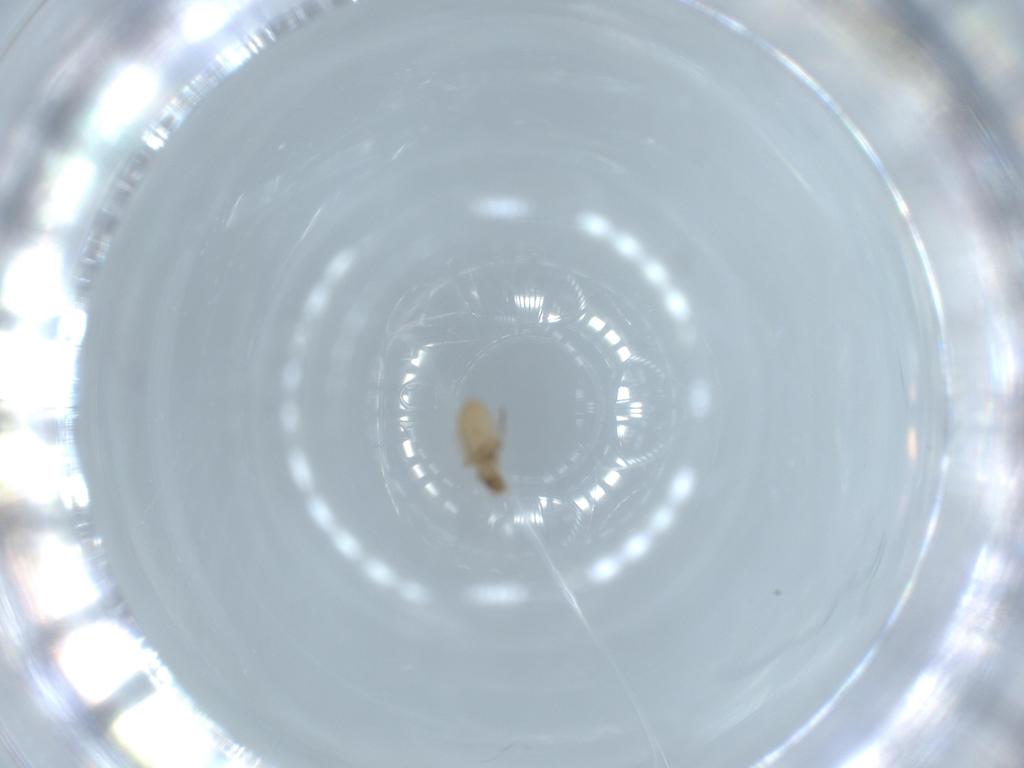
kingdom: Animalia
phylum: Arthropoda
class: Insecta
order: Diptera
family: Phoridae
